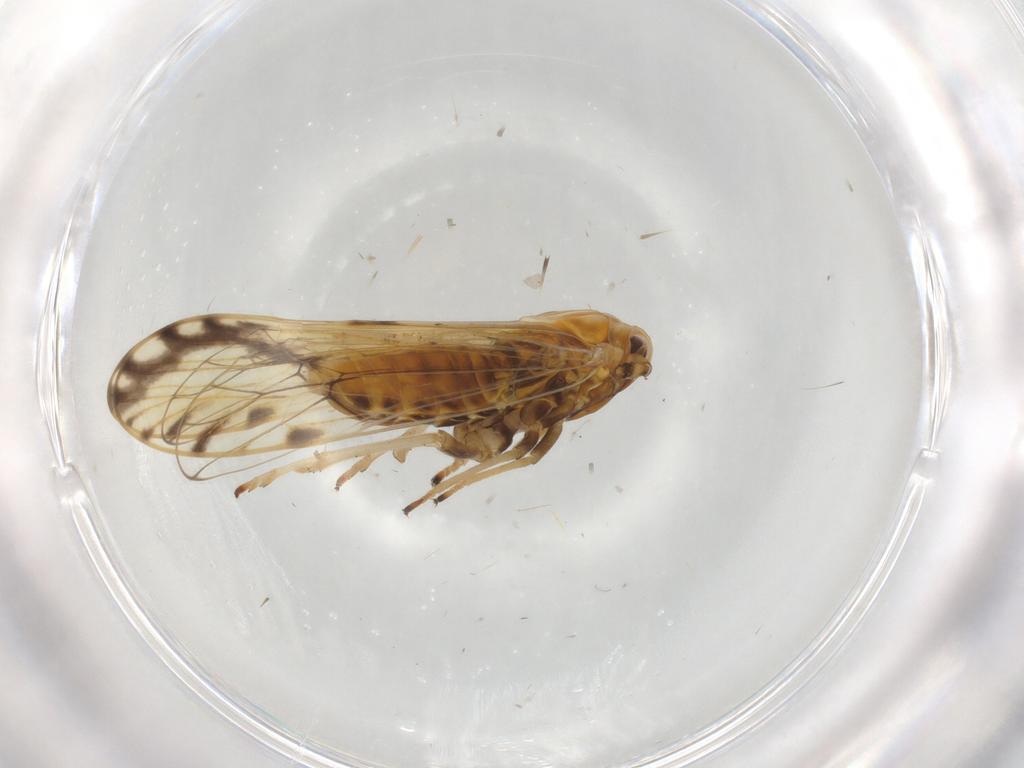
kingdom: Animalia
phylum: Arthropoda
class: Insecta
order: Hemiptera
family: Delphacidae
